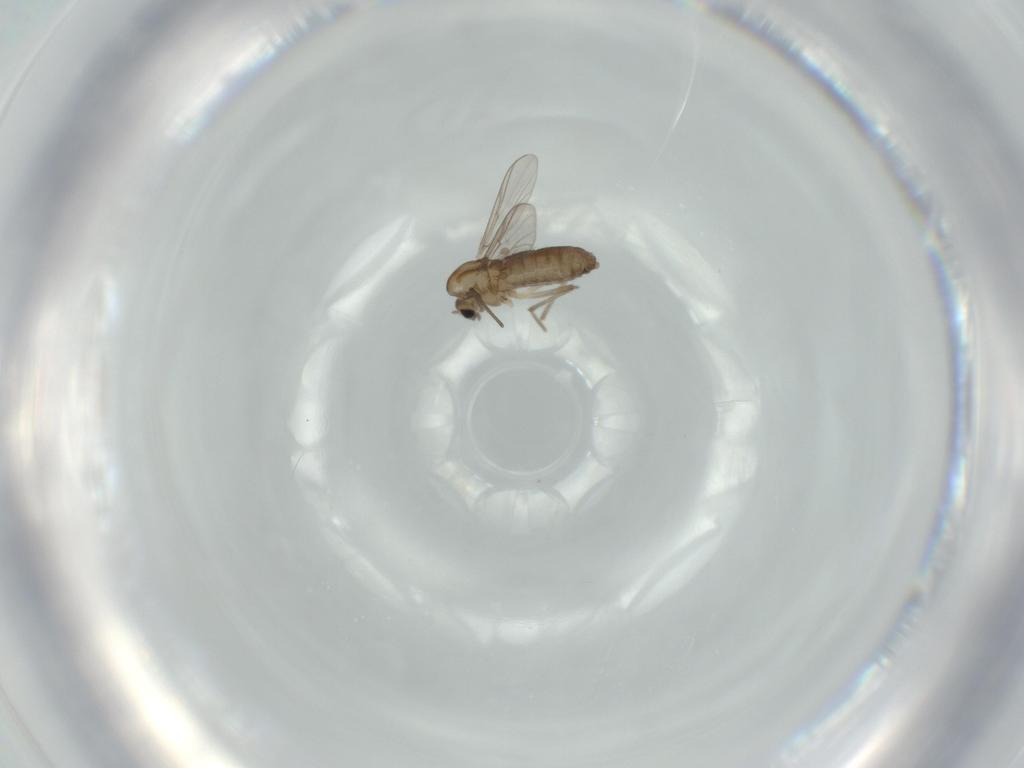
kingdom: Animalia
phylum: Arthropoda
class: Insecta
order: Diptera
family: Chironomidae
